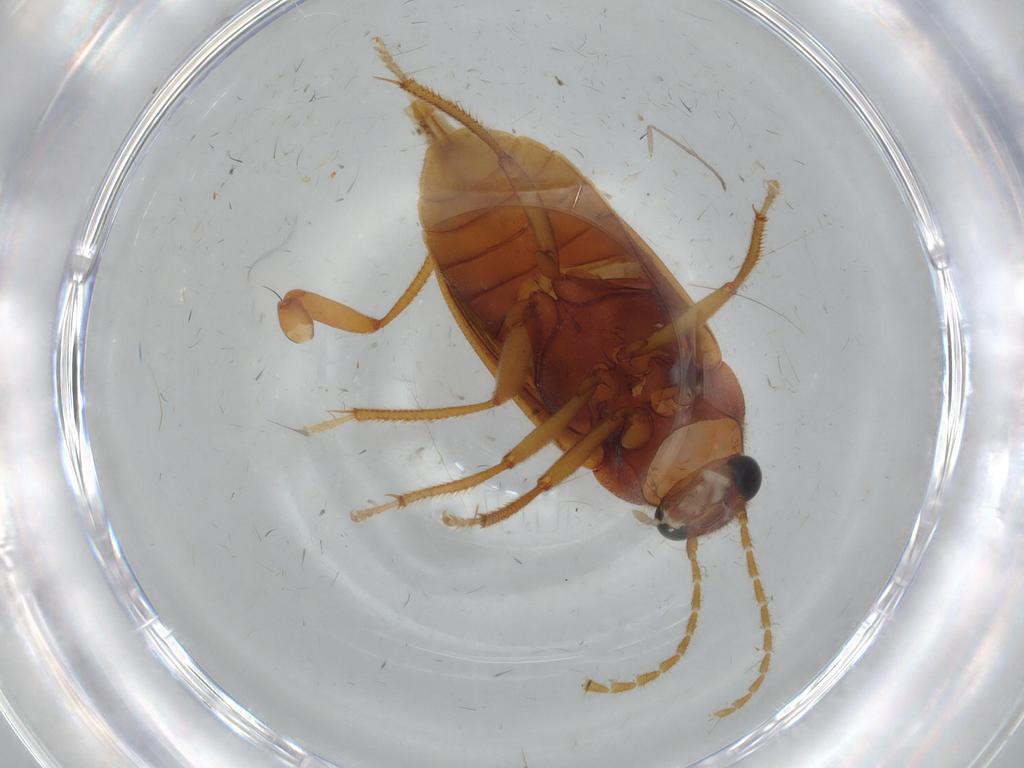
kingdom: Animalia
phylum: Arthropoda
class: Insecta
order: Coleoptera
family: Ptilodactylidae
